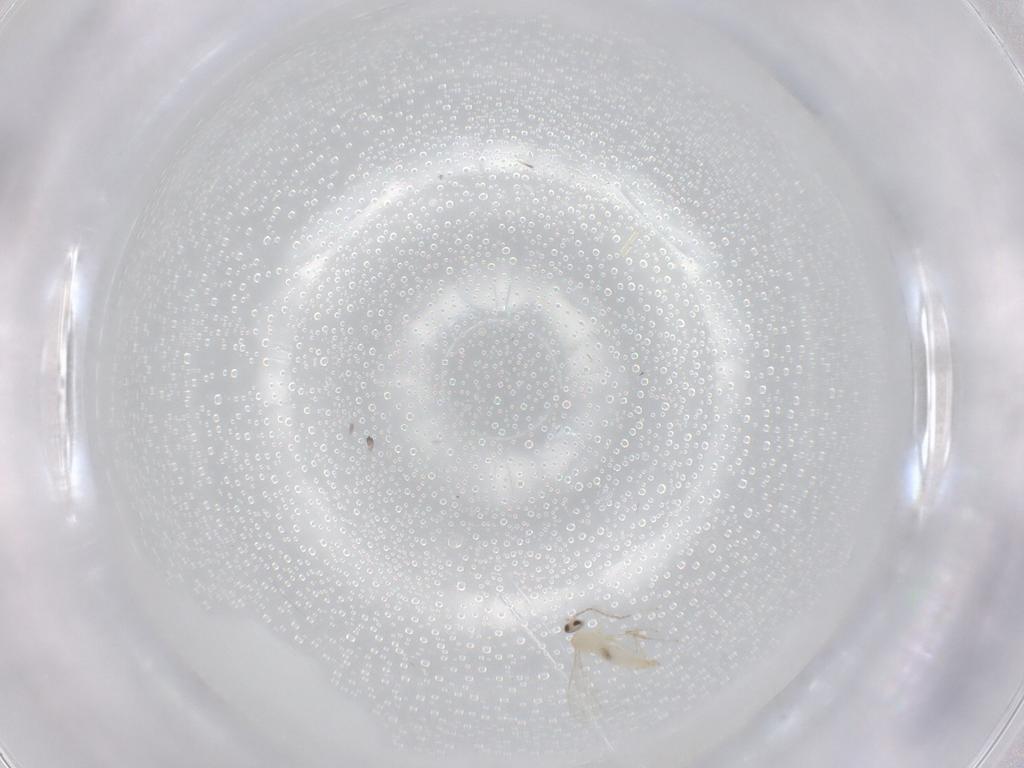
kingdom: Animalia
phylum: Arthropoda
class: Insecta
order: Diptera
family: Cecidomyiidae
